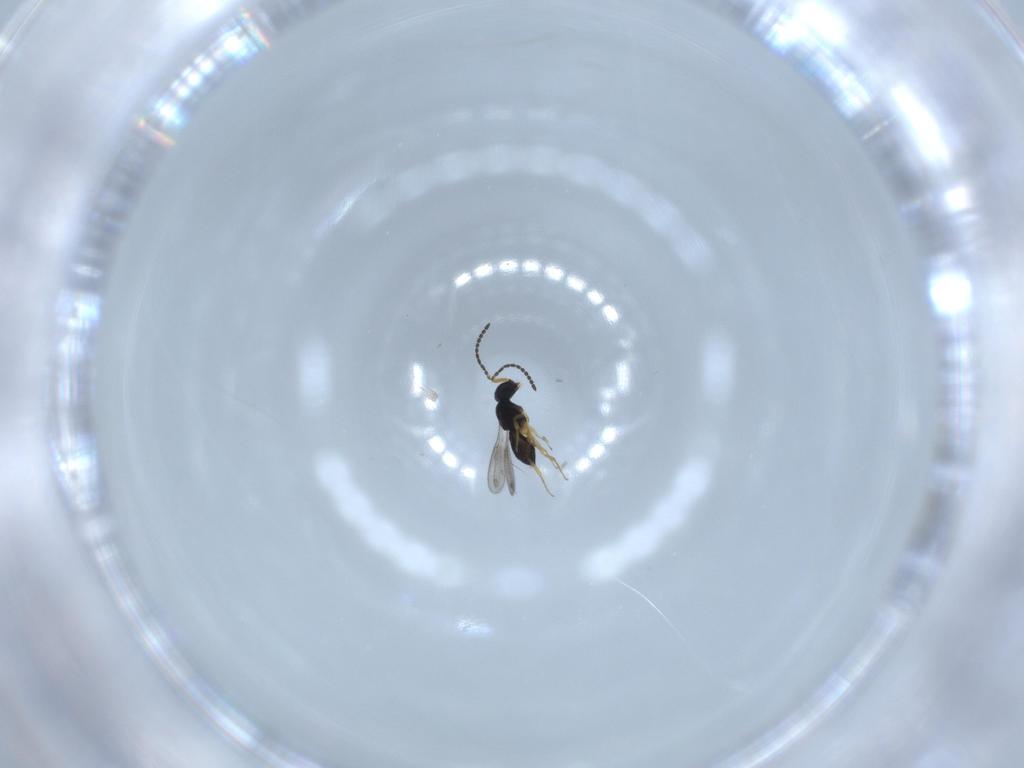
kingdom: Animalia
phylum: Arthropoda
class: Insecta
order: Hymenoptera
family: Scelionidae
